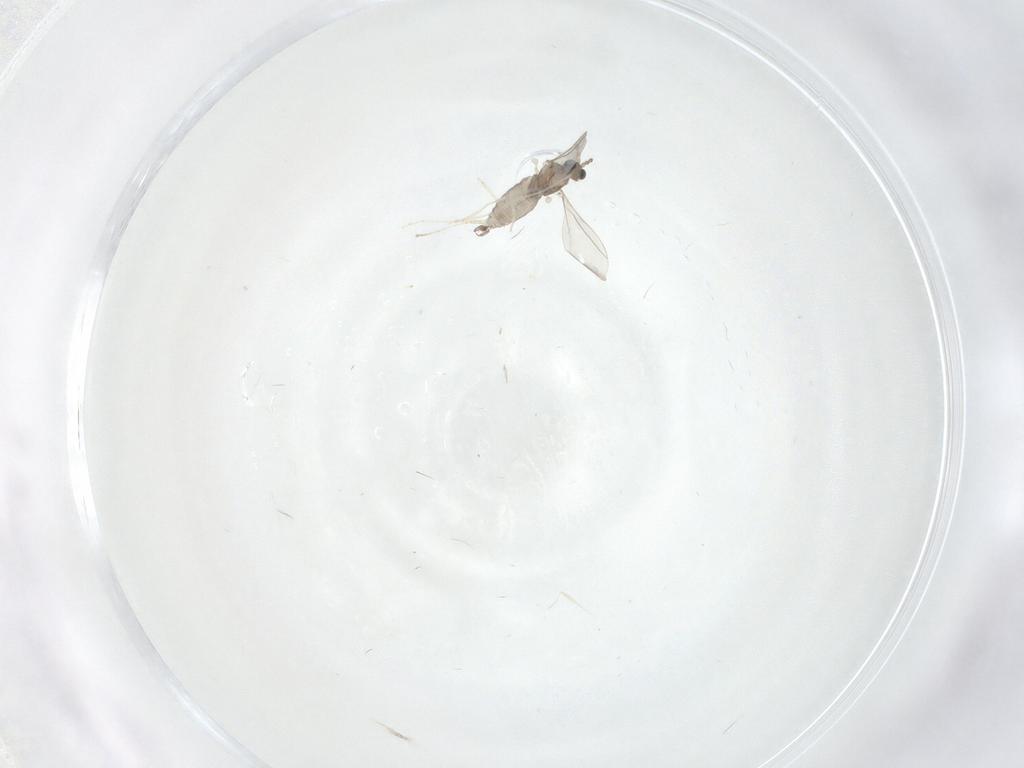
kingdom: Animalia
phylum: Arthropoda
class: Insecta
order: Diptera
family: Cecidomyiidae
